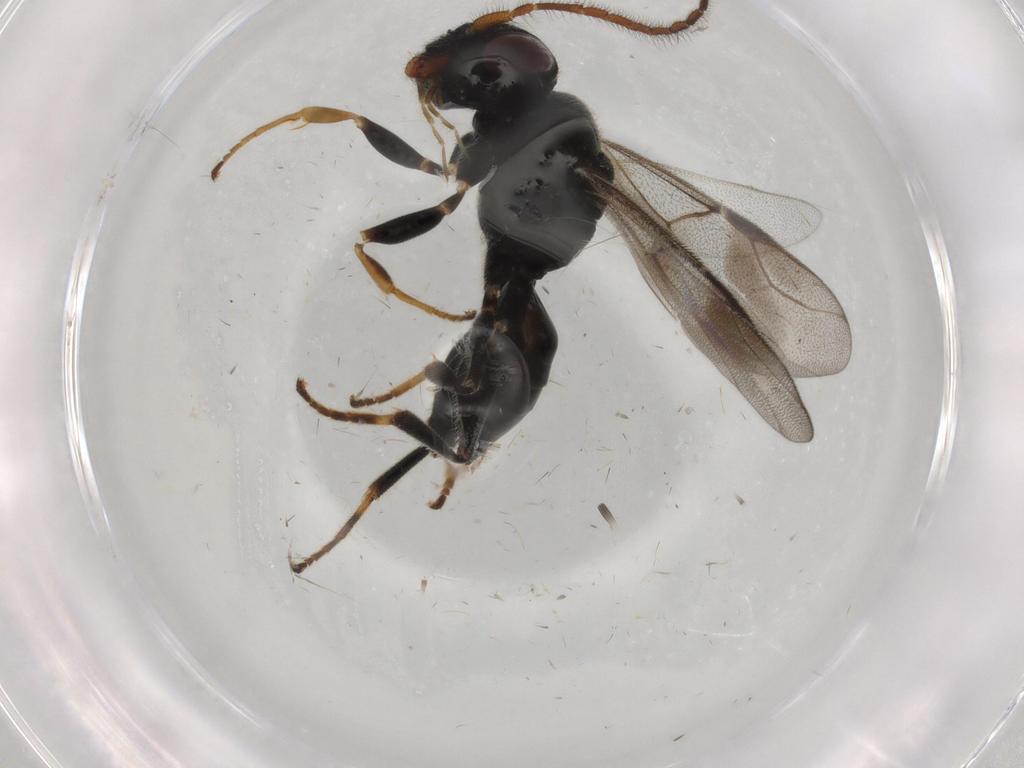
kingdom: Animalia
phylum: Arthropoda
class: Insecta
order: Hymenoptera
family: Dryinidae
